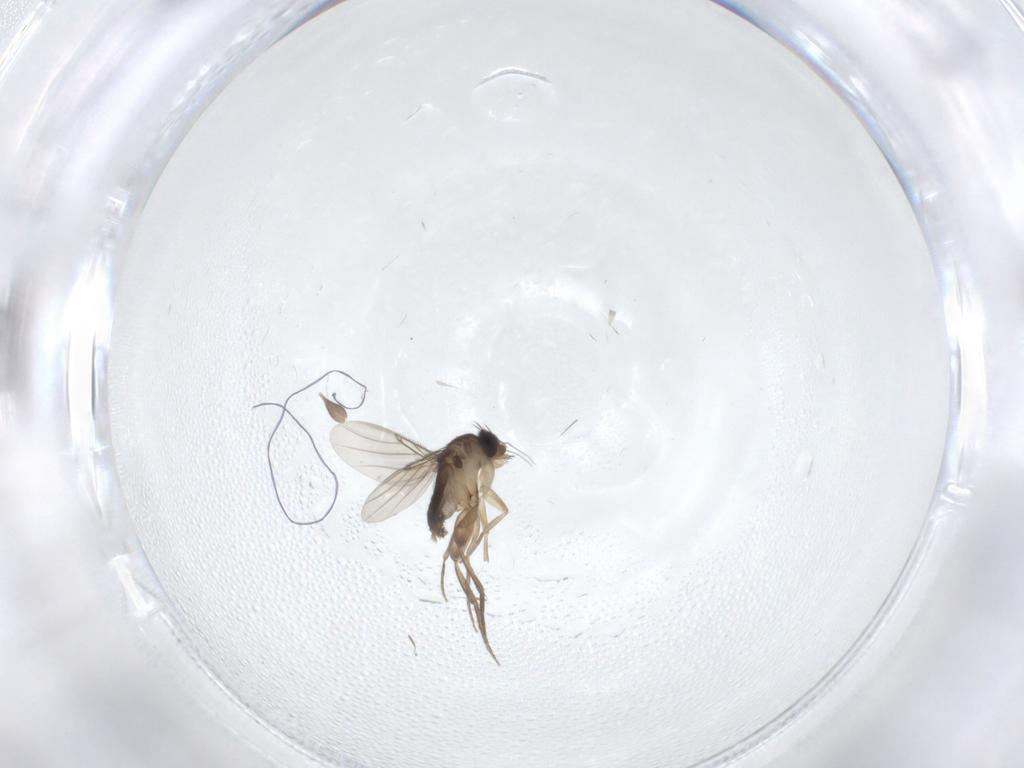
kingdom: Animalia
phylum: Arthropoda
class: Insecta
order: Diptera
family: Sciaridae
